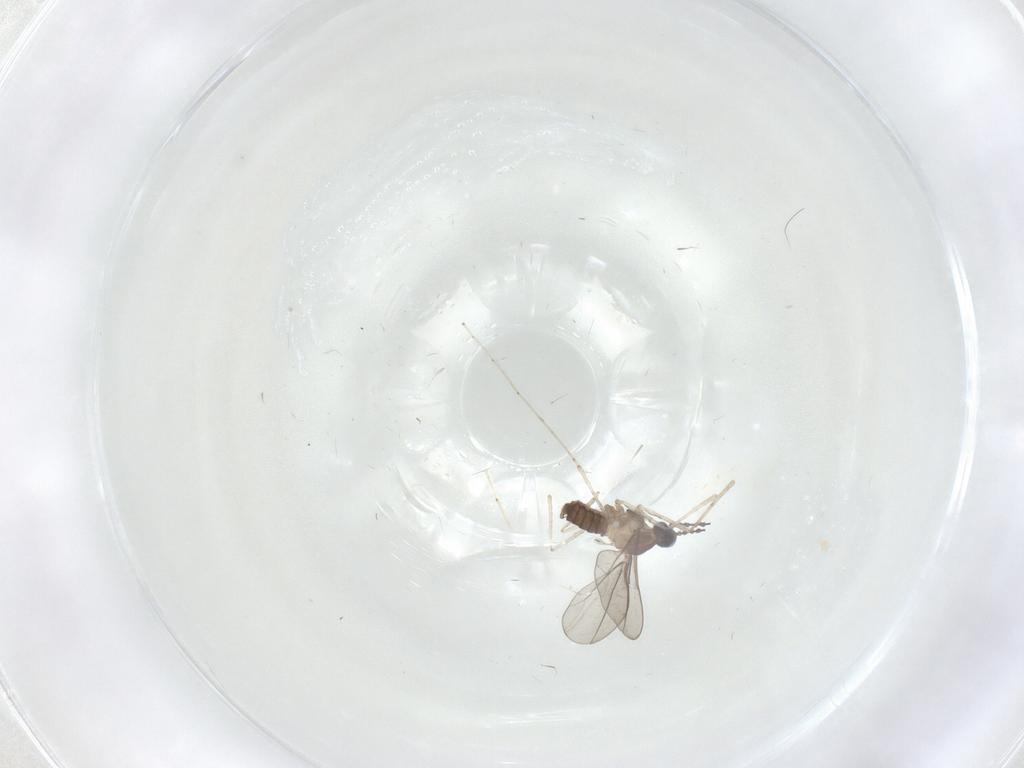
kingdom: Animalia
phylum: Arthropoda
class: Insecta
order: Diptera
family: Cecidomyiidae
